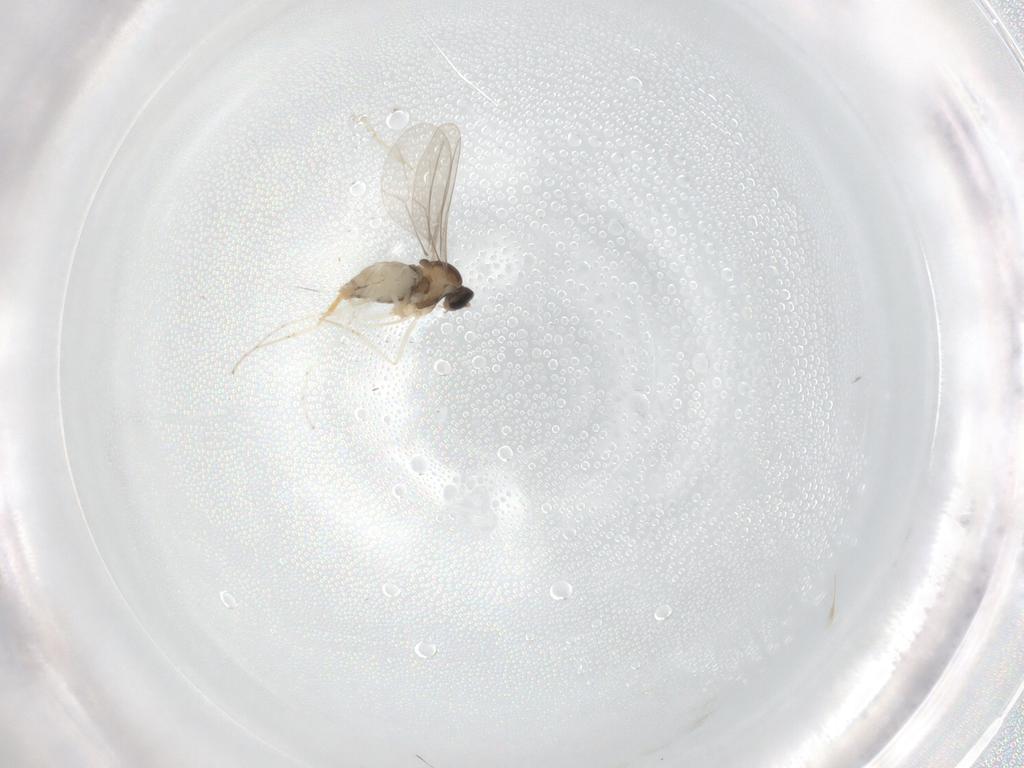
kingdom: Animalia
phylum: Arthropoda
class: Insecta
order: Diptera
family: Cecidomyiidae
